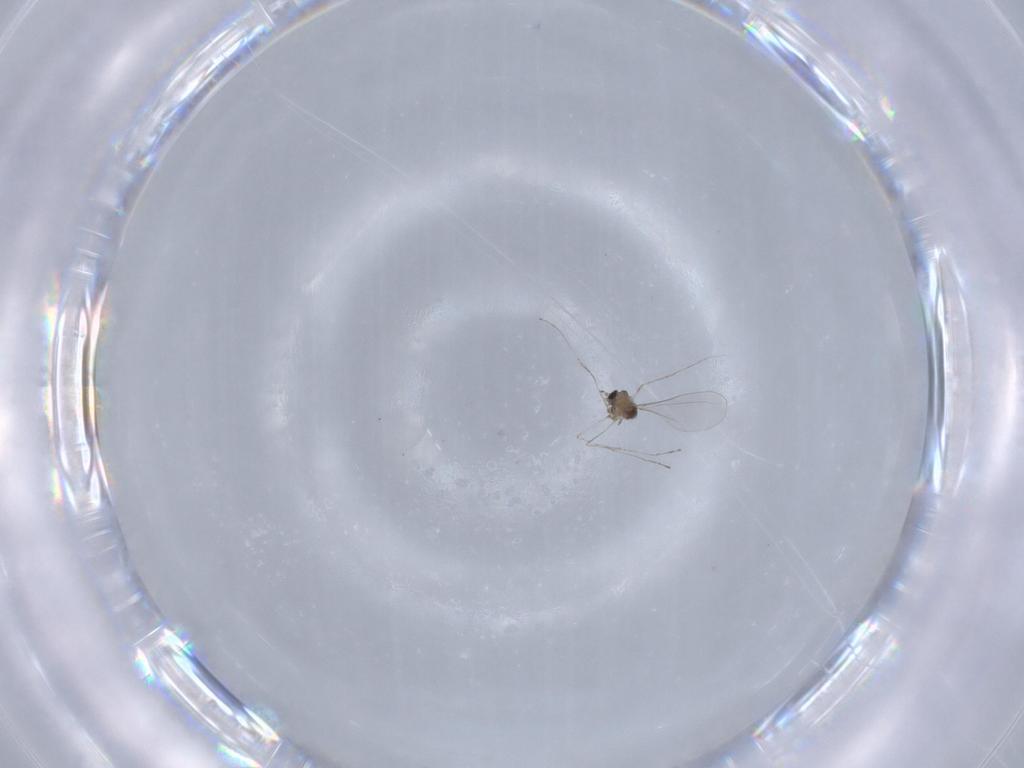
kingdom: Animalia
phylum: Arthropoda
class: Insecta
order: Diptera
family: Cecidomyiidae
